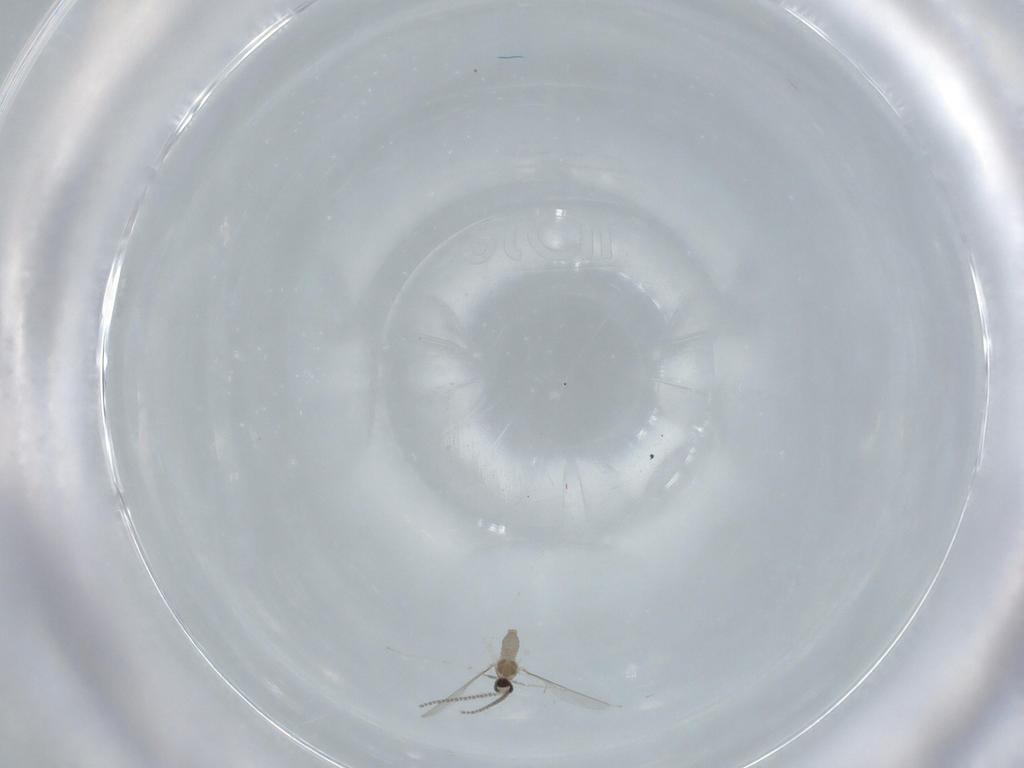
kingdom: Animalia
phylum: Arthropoda
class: Insecta
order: Diptera
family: Cecidomyiidae
